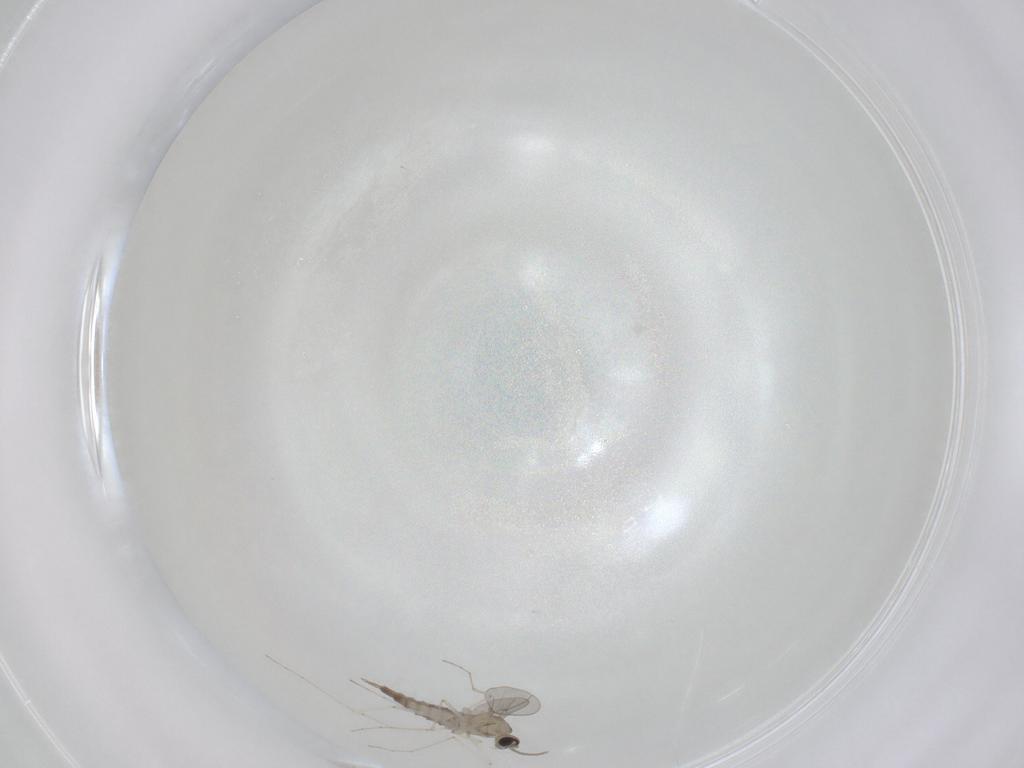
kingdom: Animalia
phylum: Arthropoda
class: Insecta
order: Diptera
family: Cecidomyiidae
